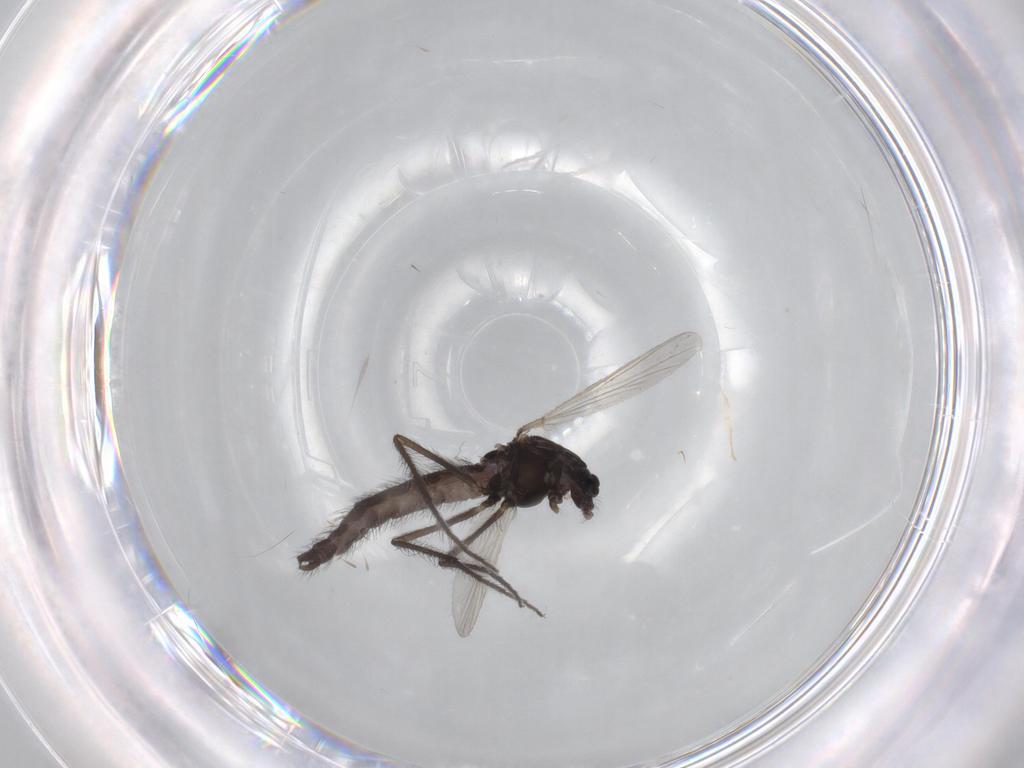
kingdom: Animalia
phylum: Arthropoda
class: Insecta
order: Diptera
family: Chironomidae
